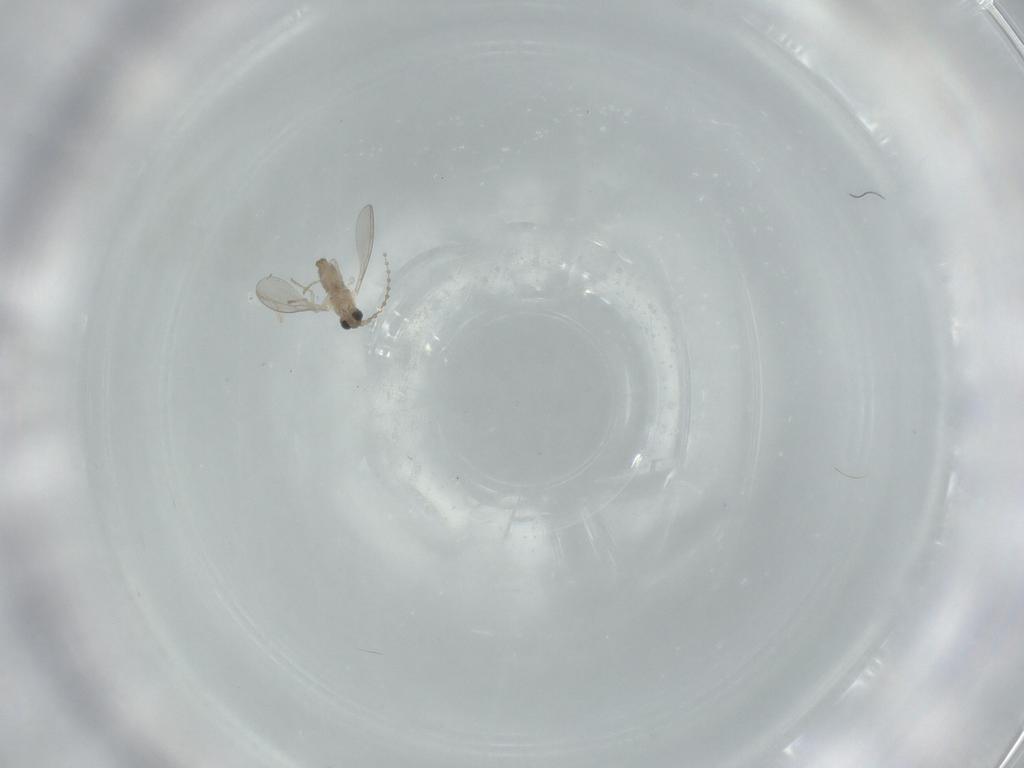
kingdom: Animalia
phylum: Arthropoda
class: Insecta
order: Diptera
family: Cecidomyiidae
